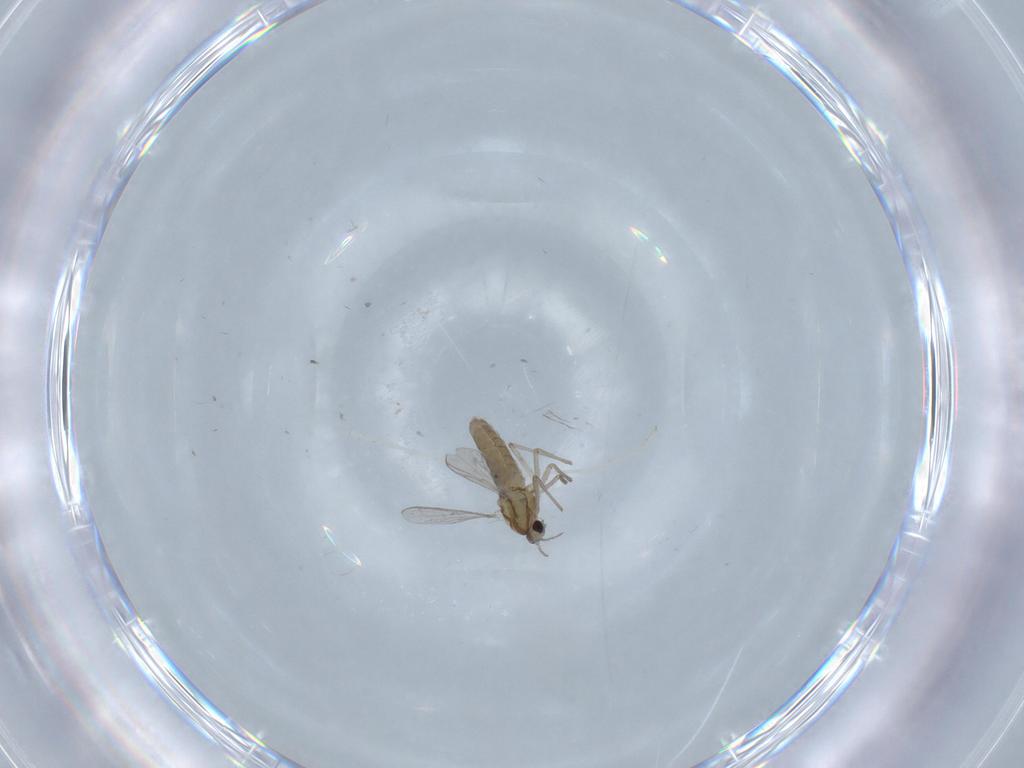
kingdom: Animalia
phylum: Arthropoda
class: Insecta
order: Diptera
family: Chironomidae
